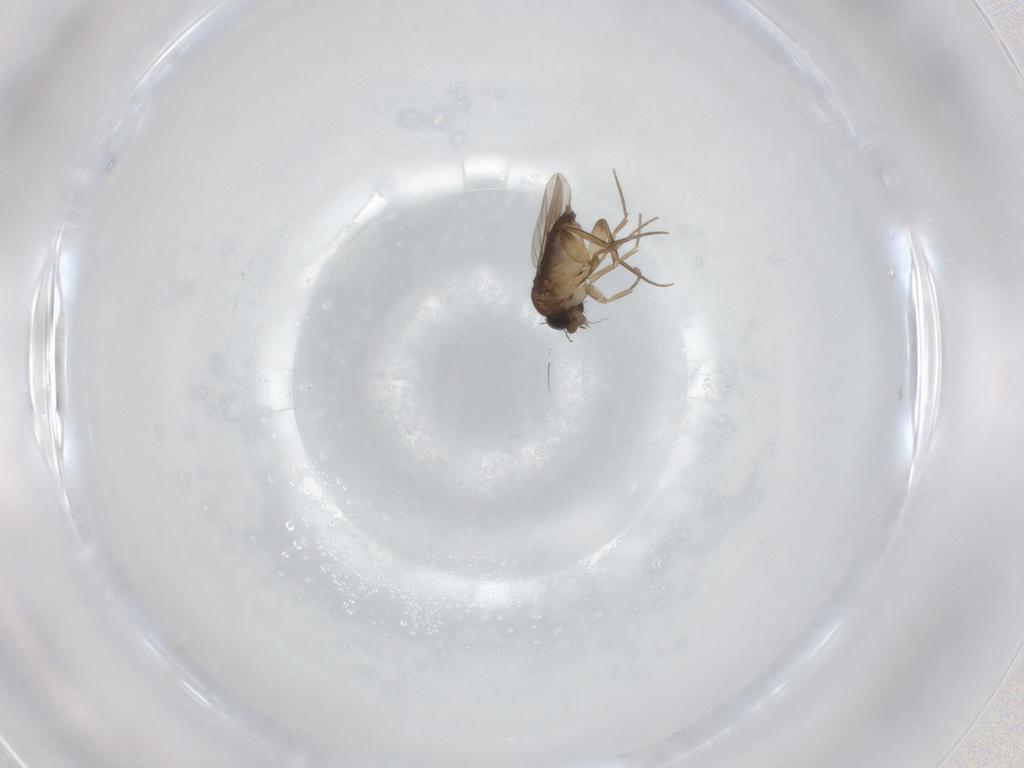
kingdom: Animalia
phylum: Arthropoda
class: Insecta
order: Diptera
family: Phoridae
